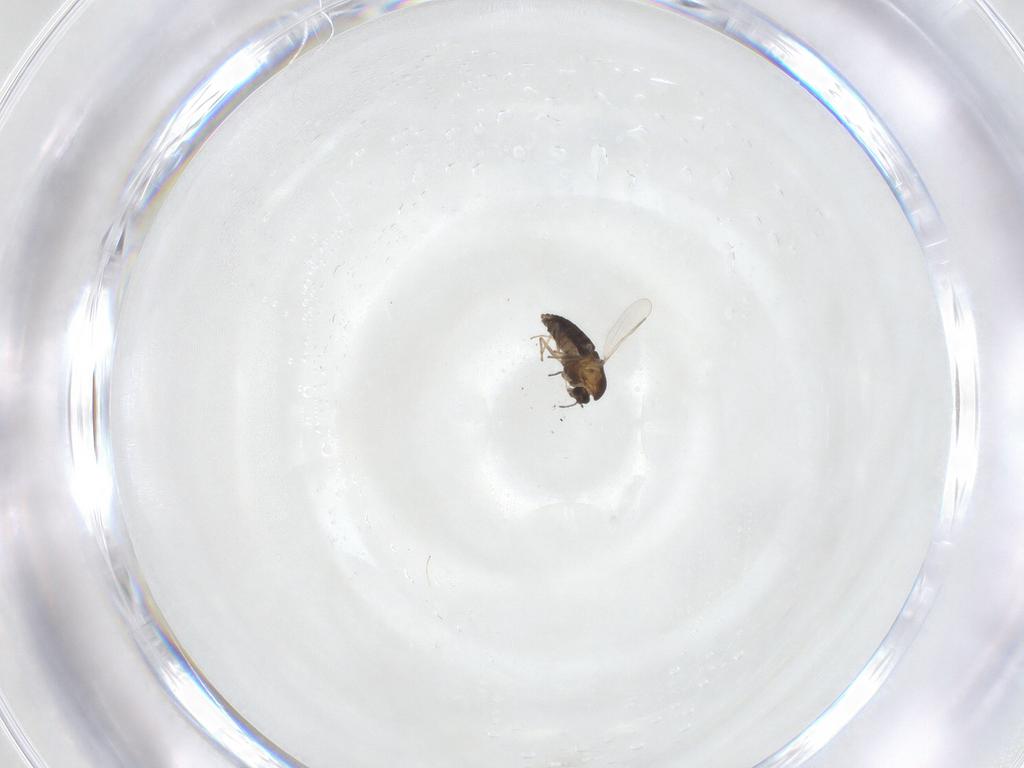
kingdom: Animalia
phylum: Arthropoda
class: Insecta
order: Diptera
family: Chironomidae
